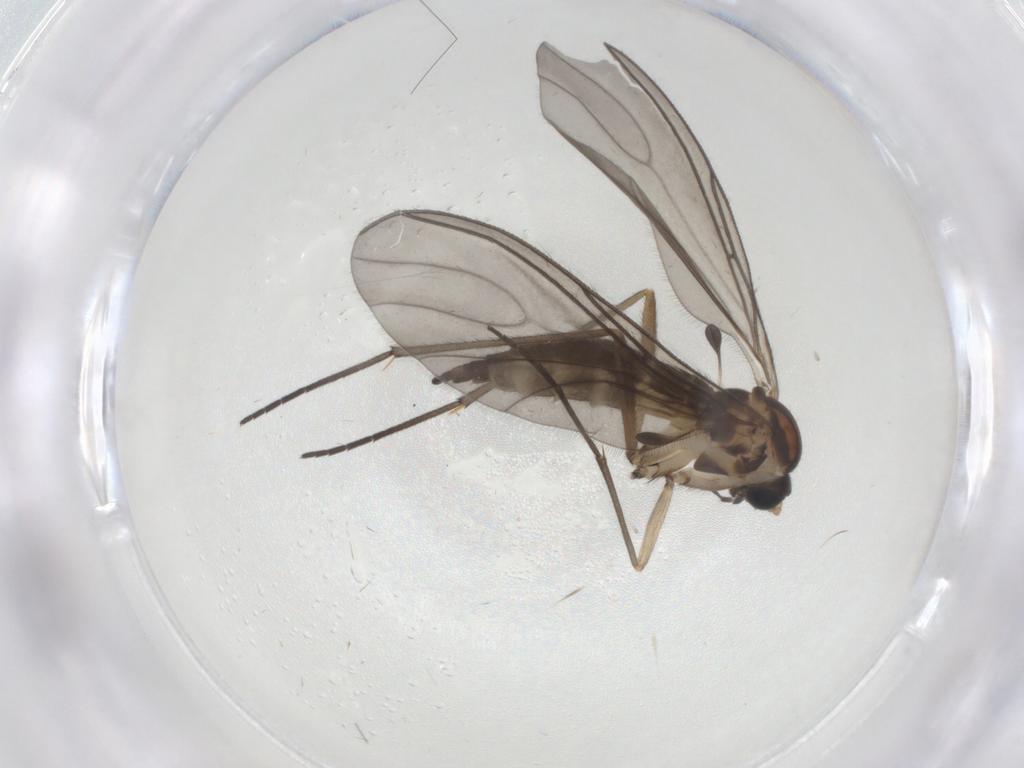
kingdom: Animalia
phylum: Arthropoda
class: Insecta
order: Diptera
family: Sciaridae
